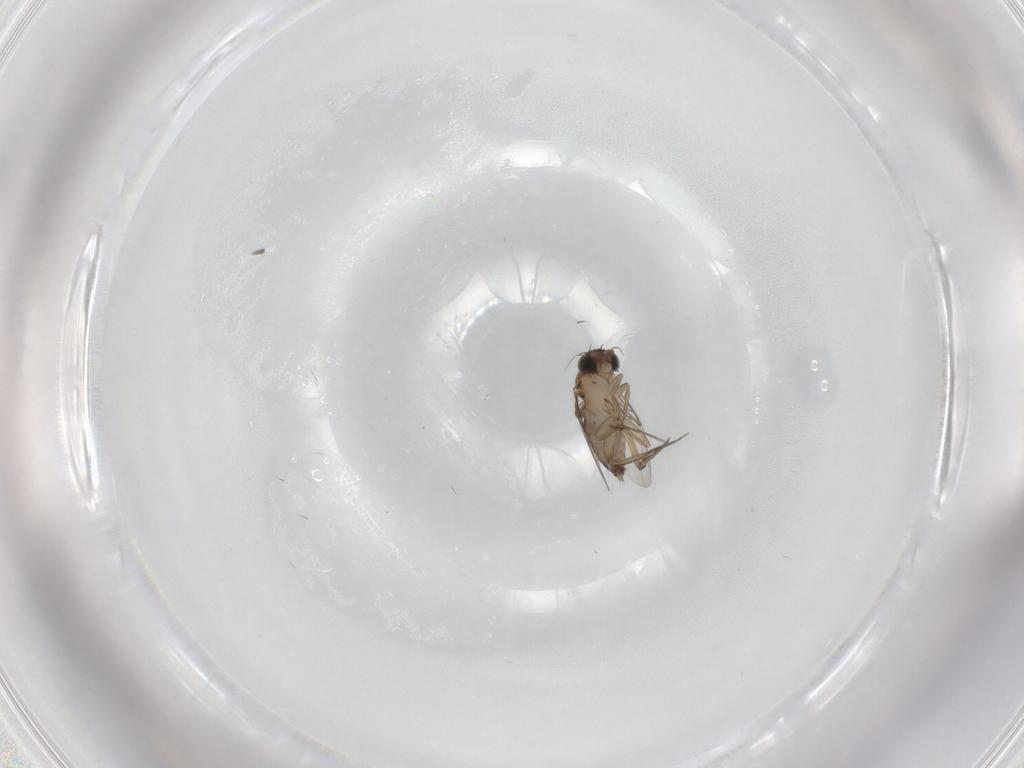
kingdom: Animalia
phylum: Arthropoda
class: Insecta
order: Diptera
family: Phoridae
